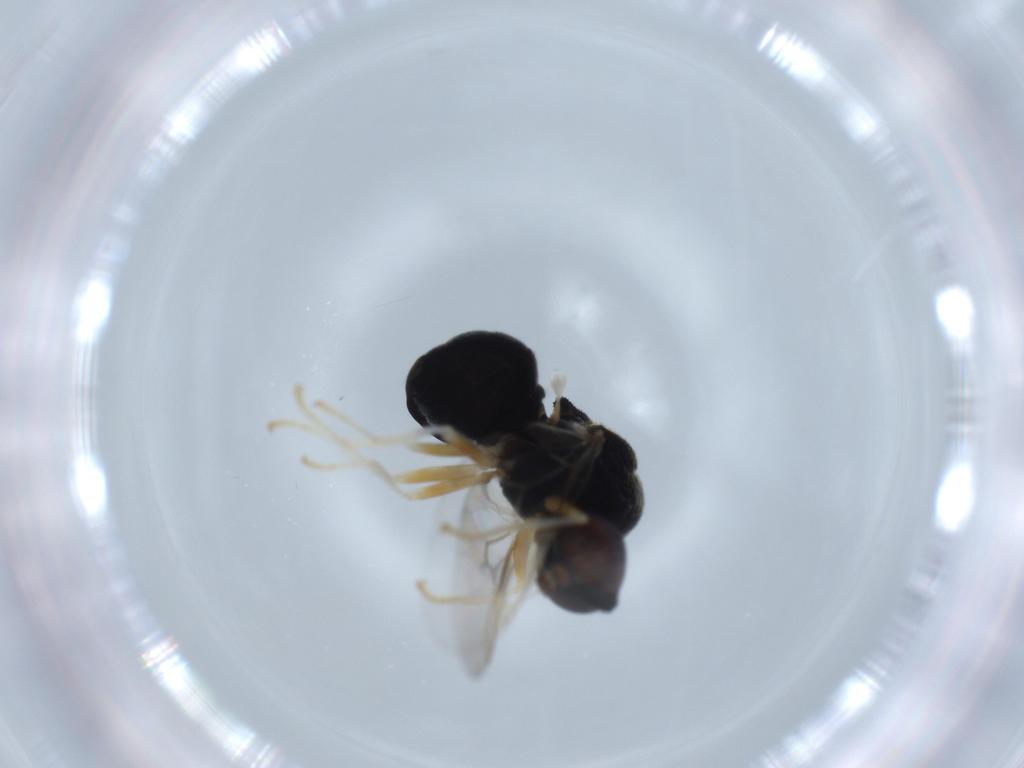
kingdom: Animalia
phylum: Arthropoda
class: Insecta
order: Diptera
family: Stratiomyidae
